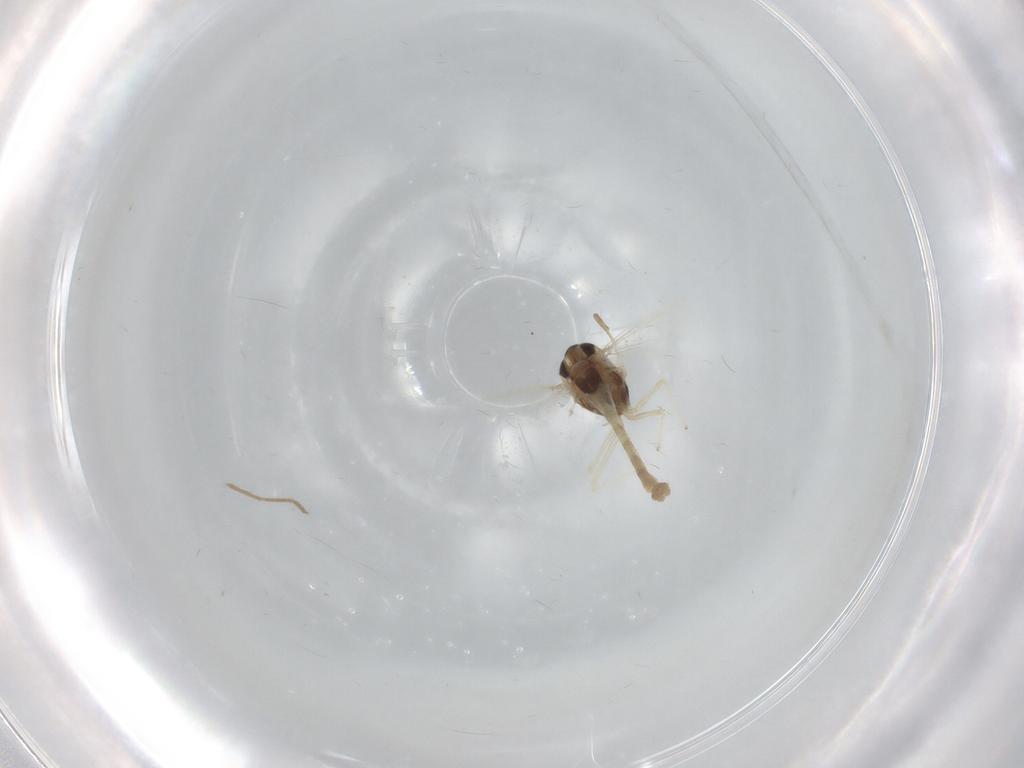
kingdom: Animalia
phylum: Arthropoda
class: Insecta
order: Diptera
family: Chironomidae
